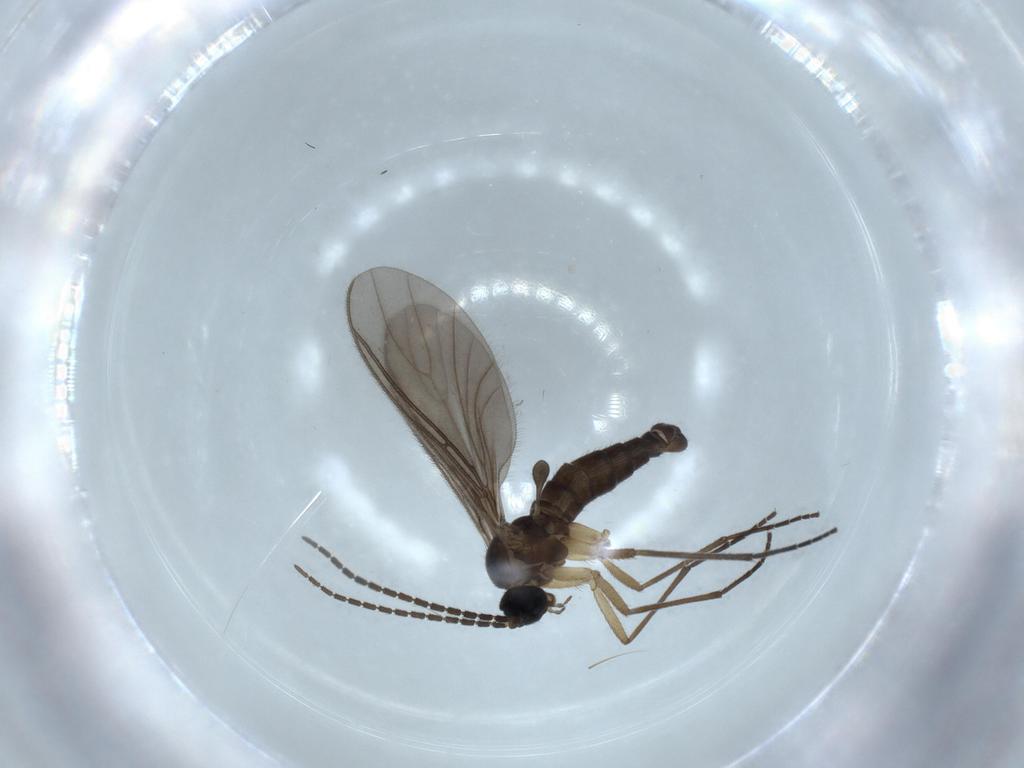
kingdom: Animalia
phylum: Arthropoda
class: Insecta
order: Diptera
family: Sciaridae
